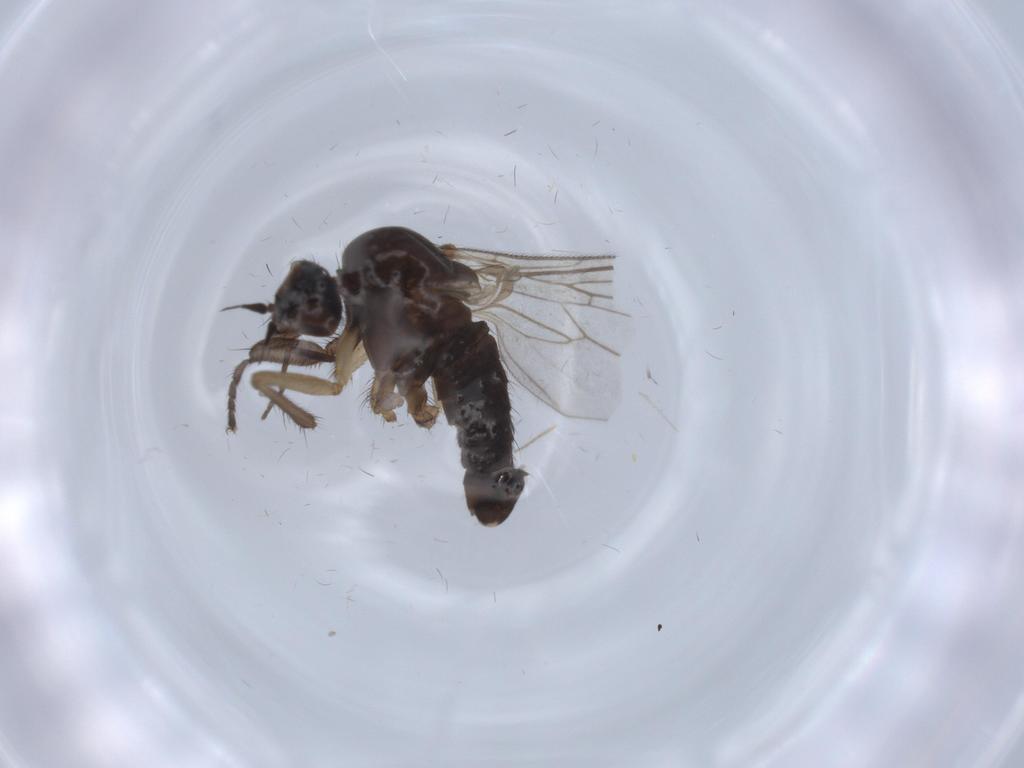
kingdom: Animalia
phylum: Arthropoda
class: Insecta
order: Diptera
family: Empididae
